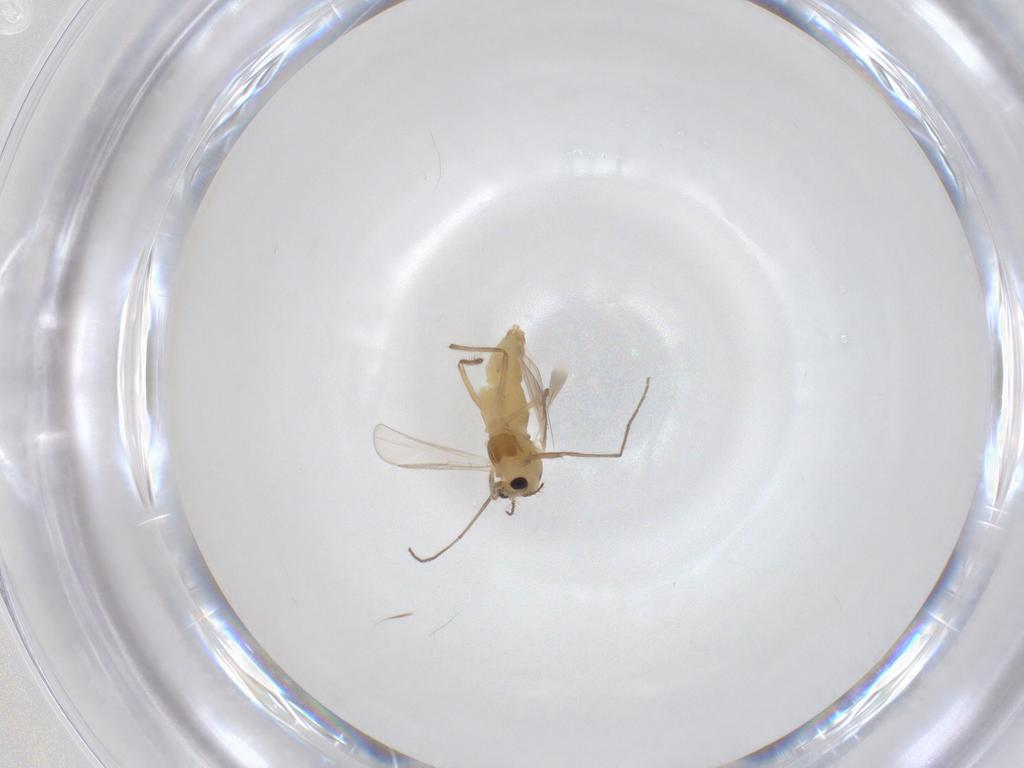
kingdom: Animalia
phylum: Arthropoda
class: Insecta
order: Diptera
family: Chironomidae
